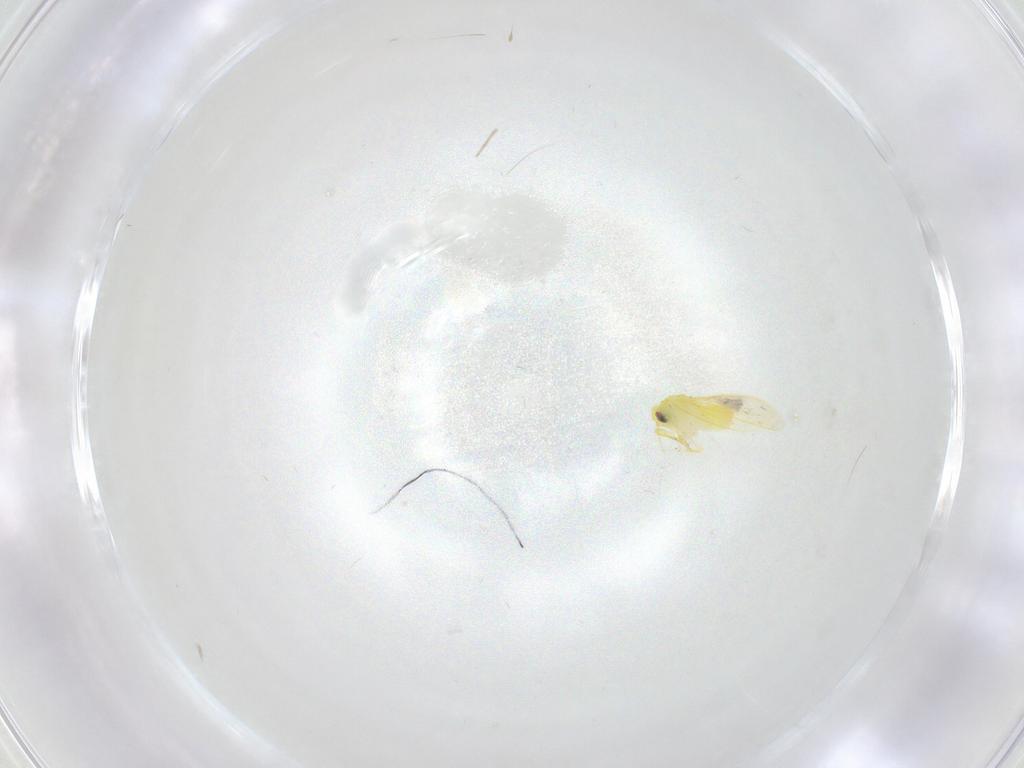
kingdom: Animalia
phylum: Arthropoda
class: Insecta
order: Hemiptera
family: Aleyrodidae
